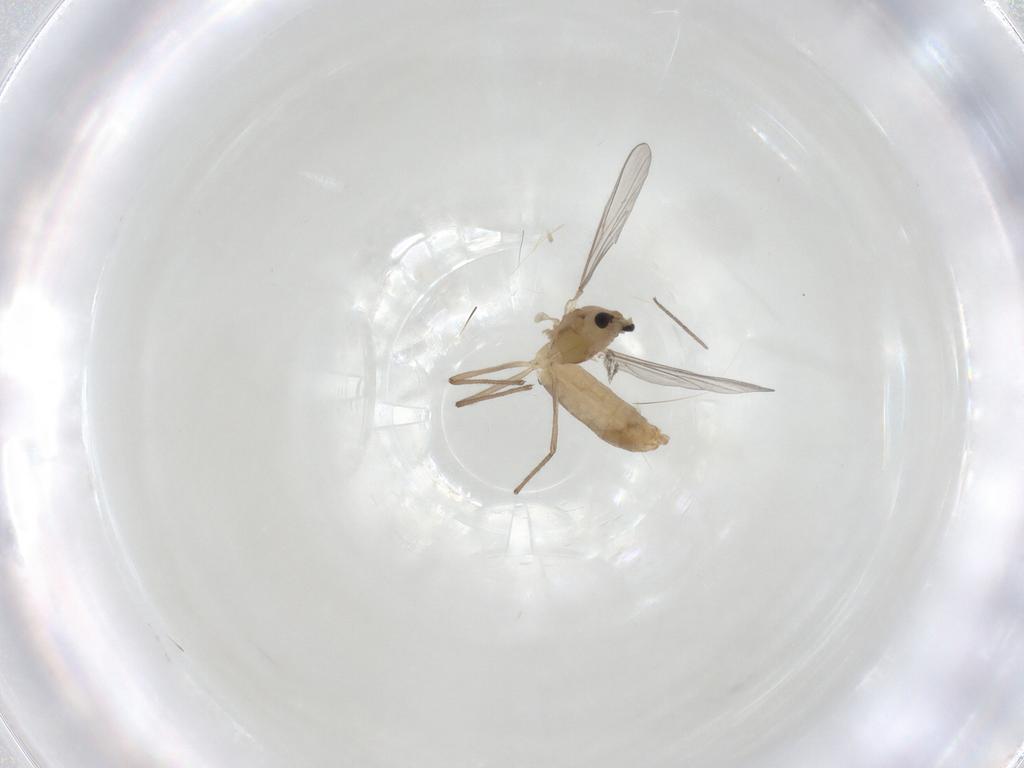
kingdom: Animalia
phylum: Arthropoda
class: Insecta
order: Diptera
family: Chironomidae
